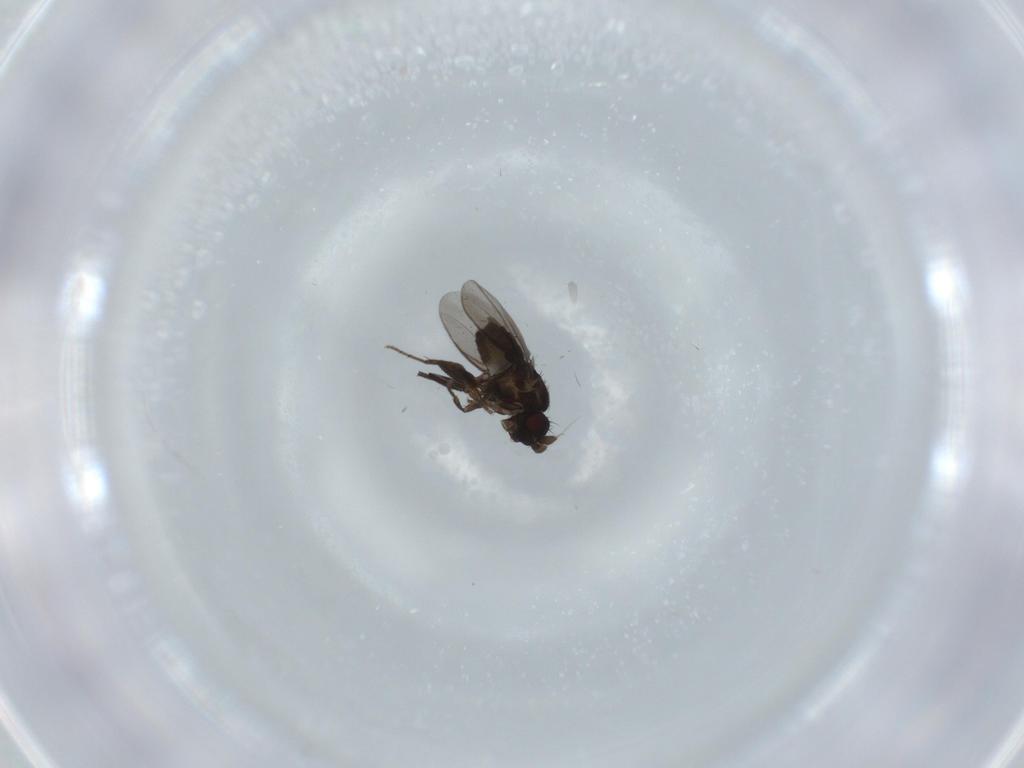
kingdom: Animalia
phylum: Arthropoda
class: Insecta
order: Diptera
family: Sphaeroceridae
